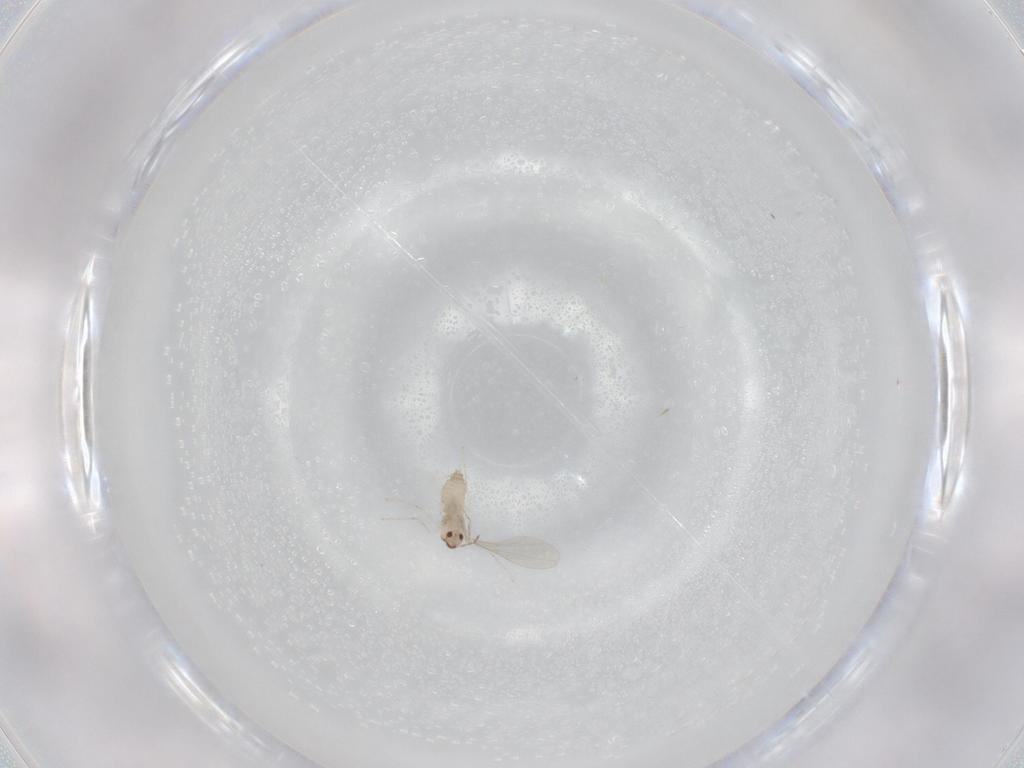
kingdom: Animalia
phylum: Arthropoda
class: Insecta
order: Diptera
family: Cecidomyiidae
